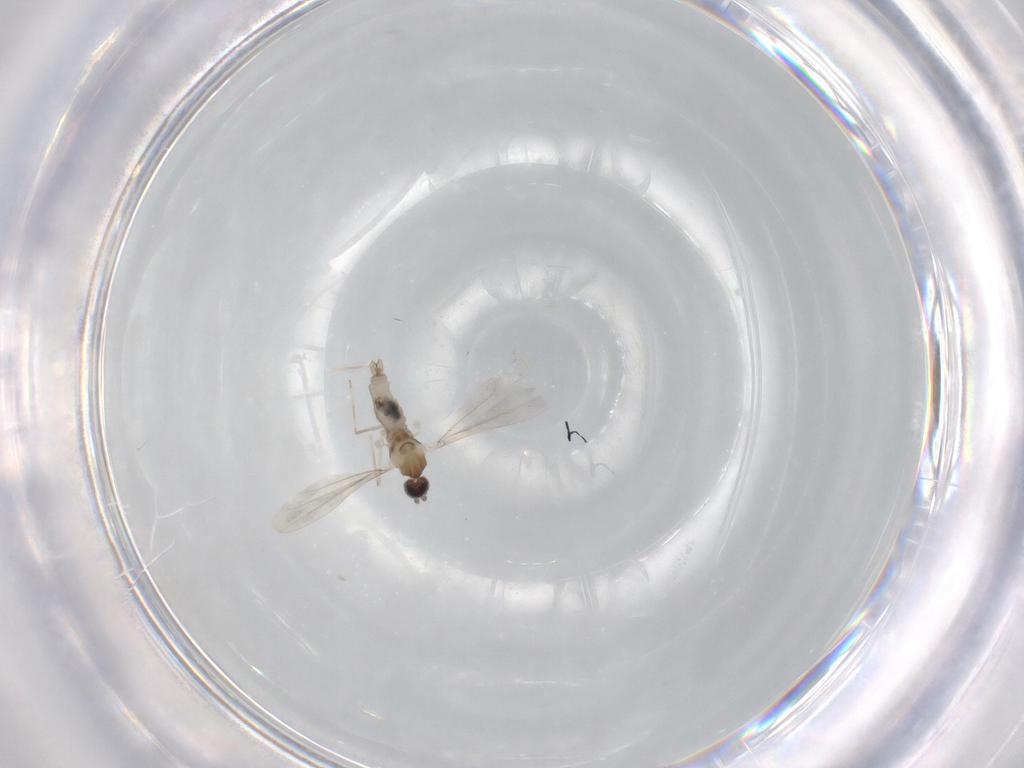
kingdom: Animalia
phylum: Arthropoda
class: Insecta
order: Diptera
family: Cecidomyiidae
